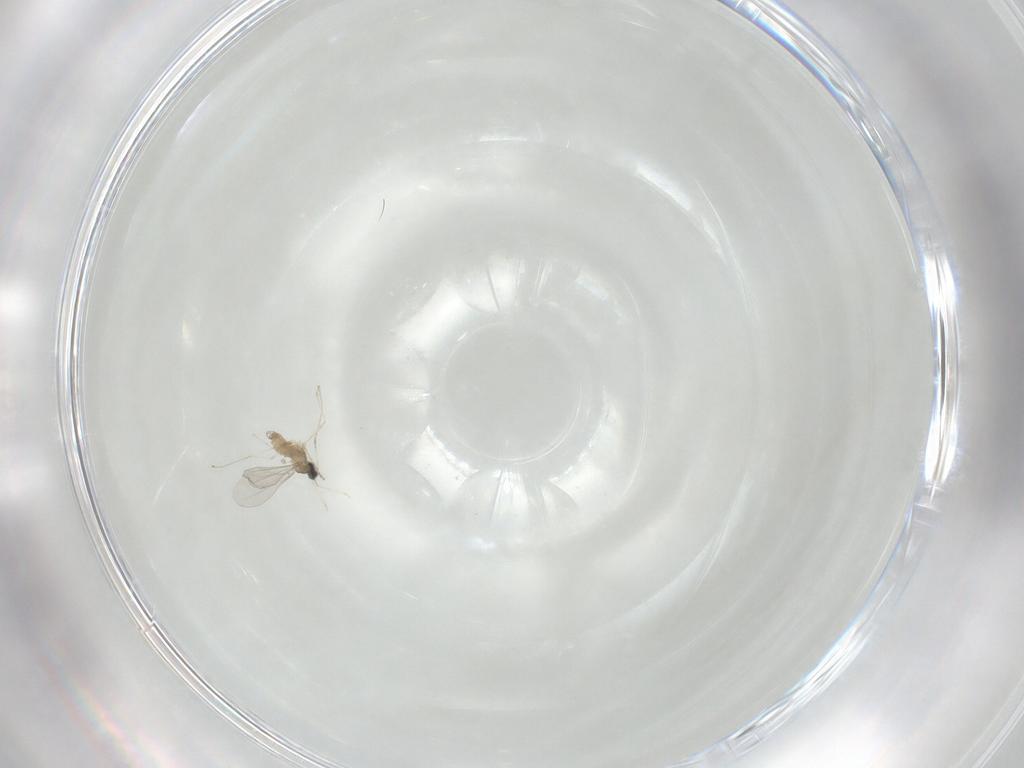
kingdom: Animalia
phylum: Arthropoda
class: Insecta
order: Diptera
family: Cecidomyiidae
